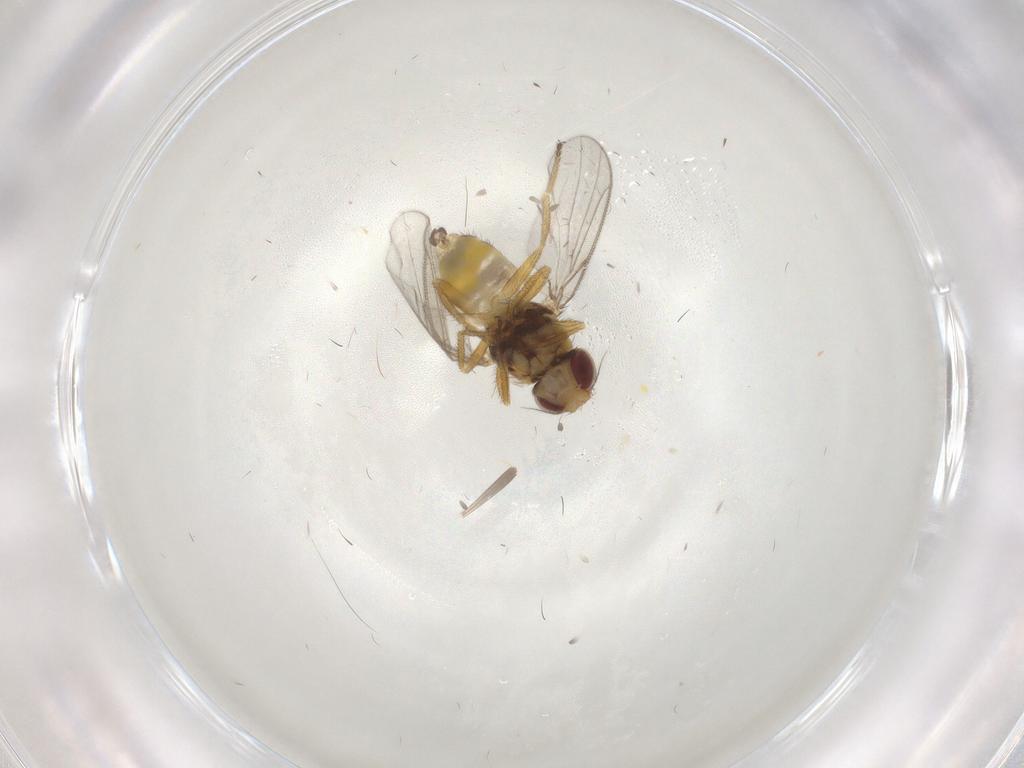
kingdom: Animalia
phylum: Arthropoda
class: Insecta
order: Diptera
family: Chloropidae
